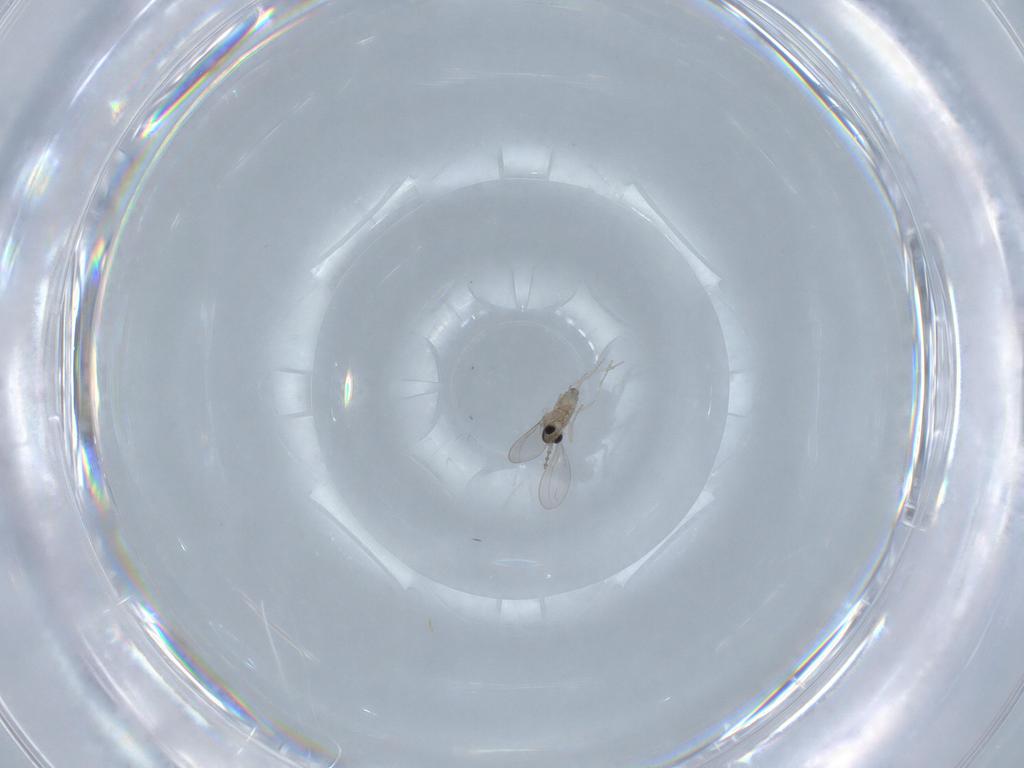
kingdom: Animalia
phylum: Arthropoda
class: Insecta
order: Diptera
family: Cecidomyiidae
